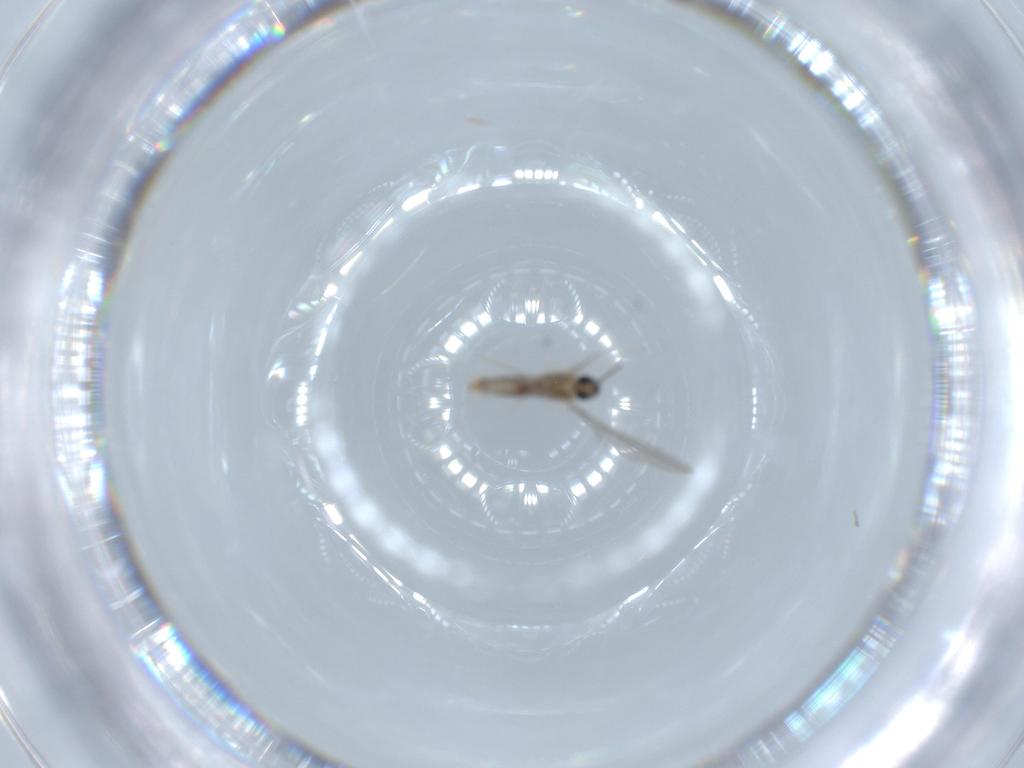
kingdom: Animalia
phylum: Arthropoda
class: Insecta
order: Diptera
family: Cecidomyiidae
